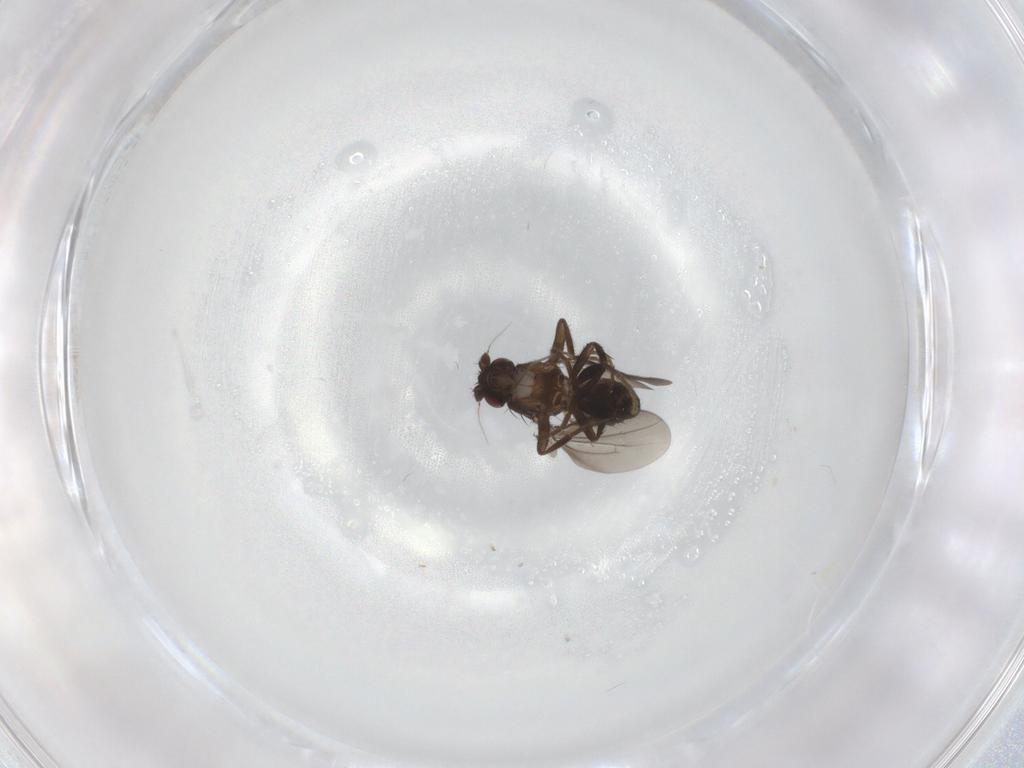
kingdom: Animalia
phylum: Arthropoda
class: Insecta
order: Diptera
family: Sphaeroceridae
